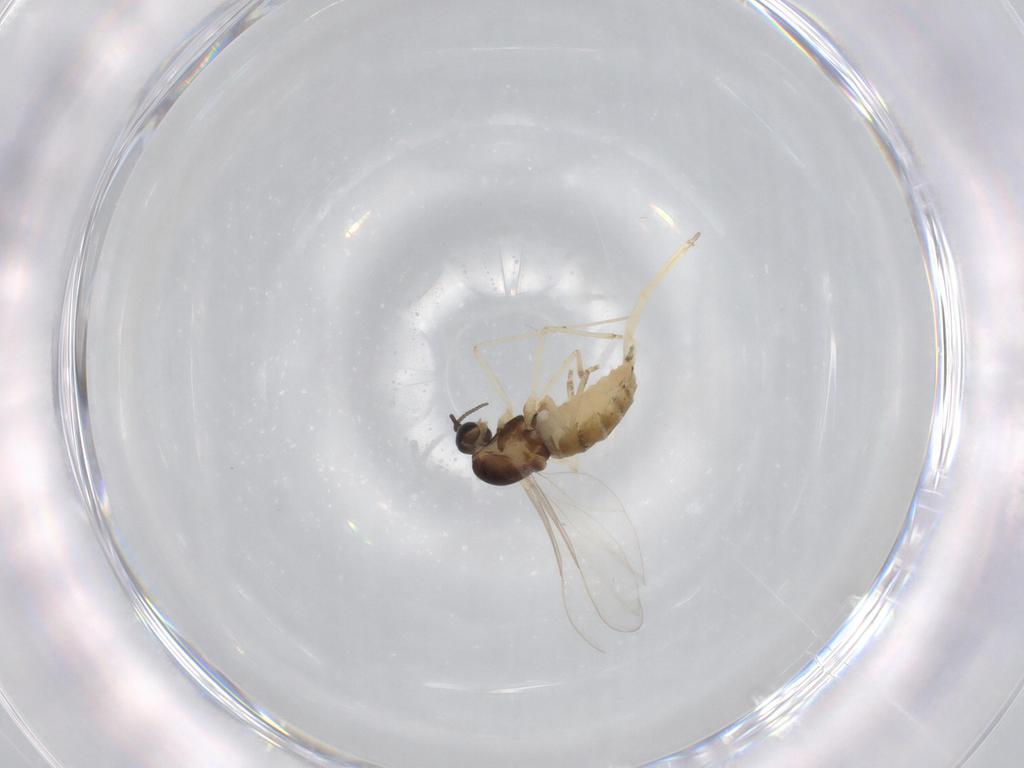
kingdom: Animalia
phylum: Arthropoda
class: Insecta
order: Diptera
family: Cecidomyiidae
